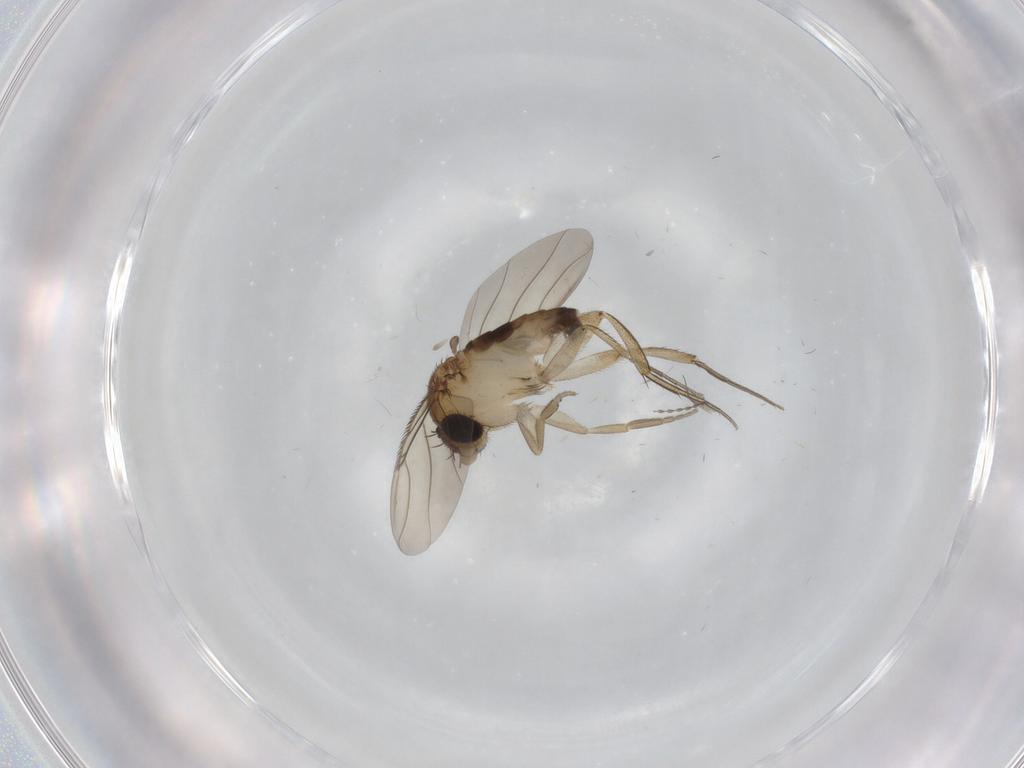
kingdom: Animalia
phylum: Arthropoda
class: Insecta
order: Diptera
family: Phoridae
